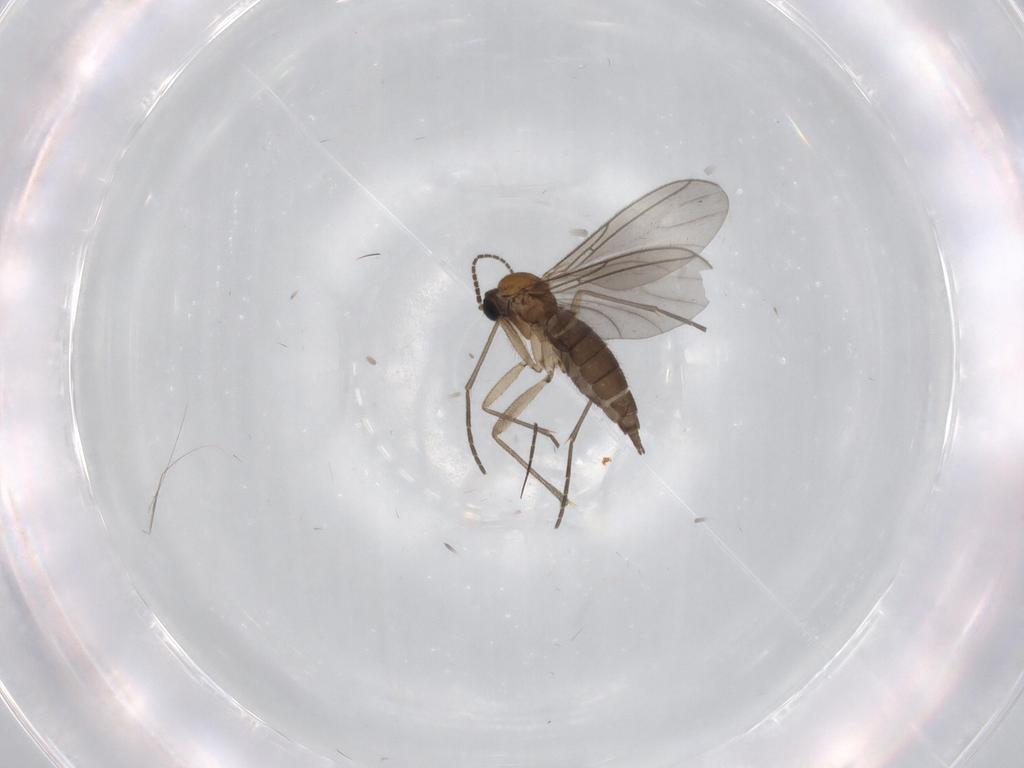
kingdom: Animalia
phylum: Arthropoda
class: Insecta
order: Diptera
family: Sciaridae
